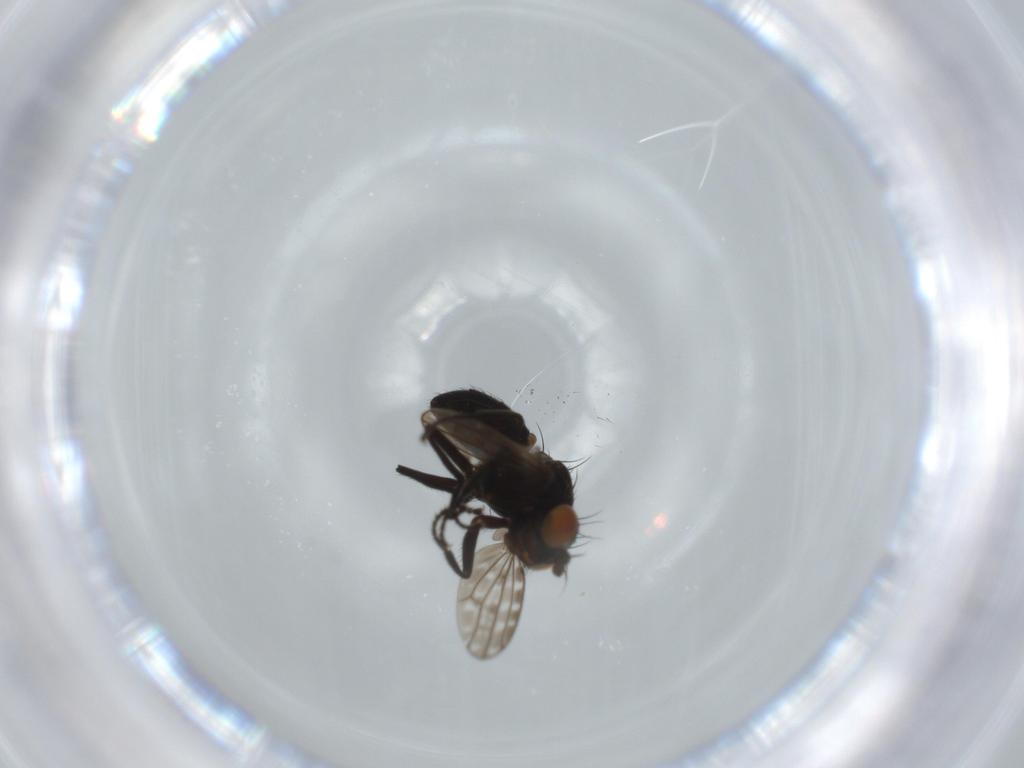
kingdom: Animalia
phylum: Arthropoda
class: Insecta
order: Diptera
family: Ephydridae
